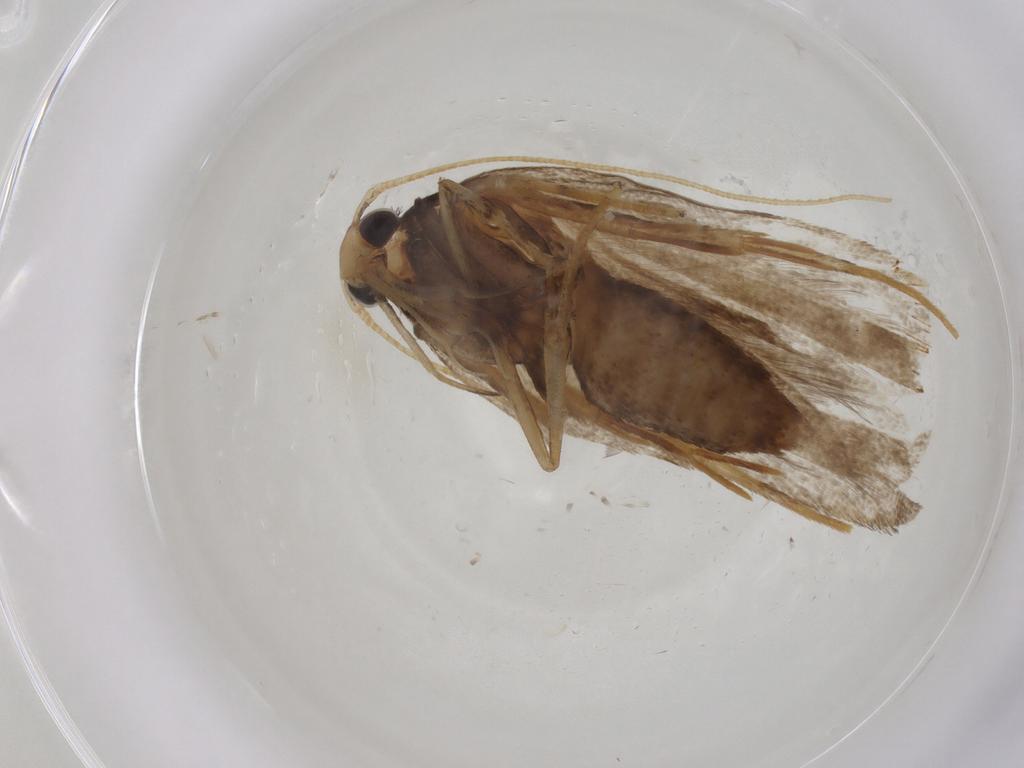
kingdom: Animalia
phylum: Arthropoda
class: Insecta
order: Lepidoptera
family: Lecithoceridae
